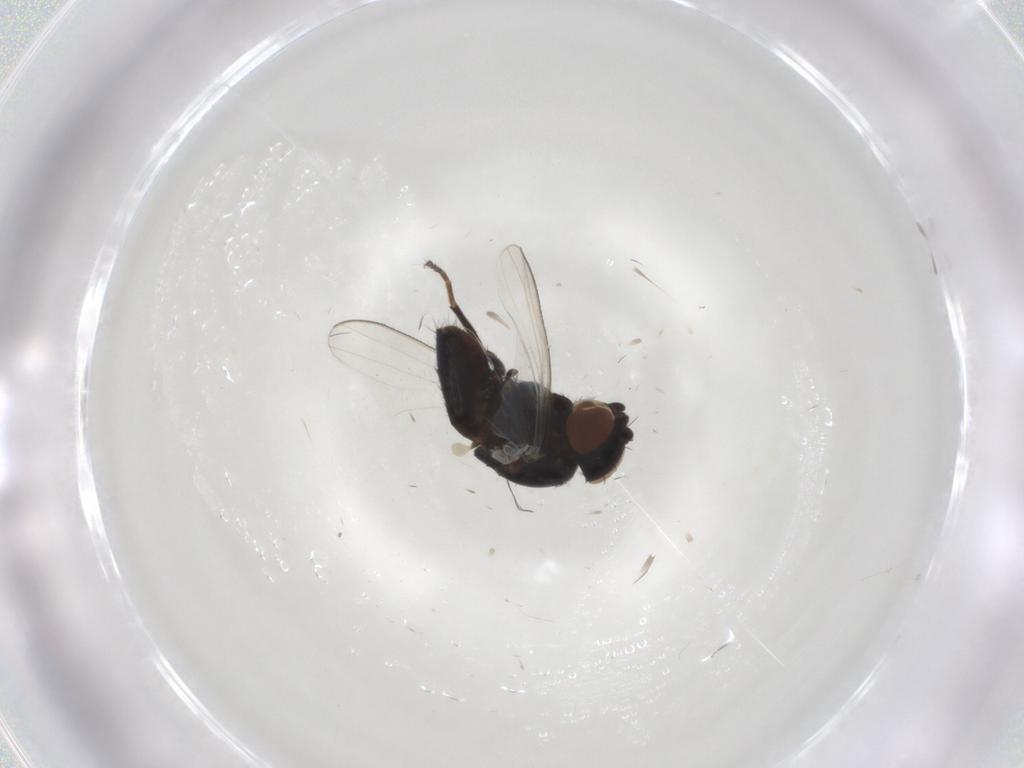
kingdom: Animalia
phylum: Arthropoda
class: Insecta
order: Diptera
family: Milichiidae
